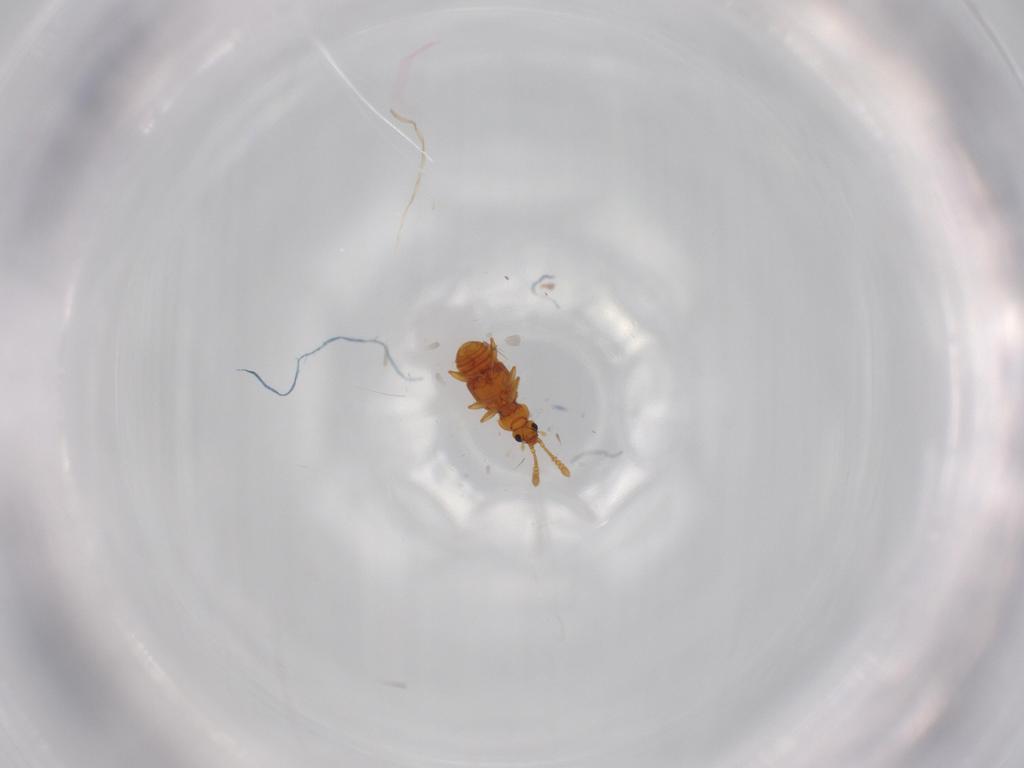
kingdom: Animalia
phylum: Arthropoda
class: Insecta
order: Coleoptera
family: Staphylinidae
